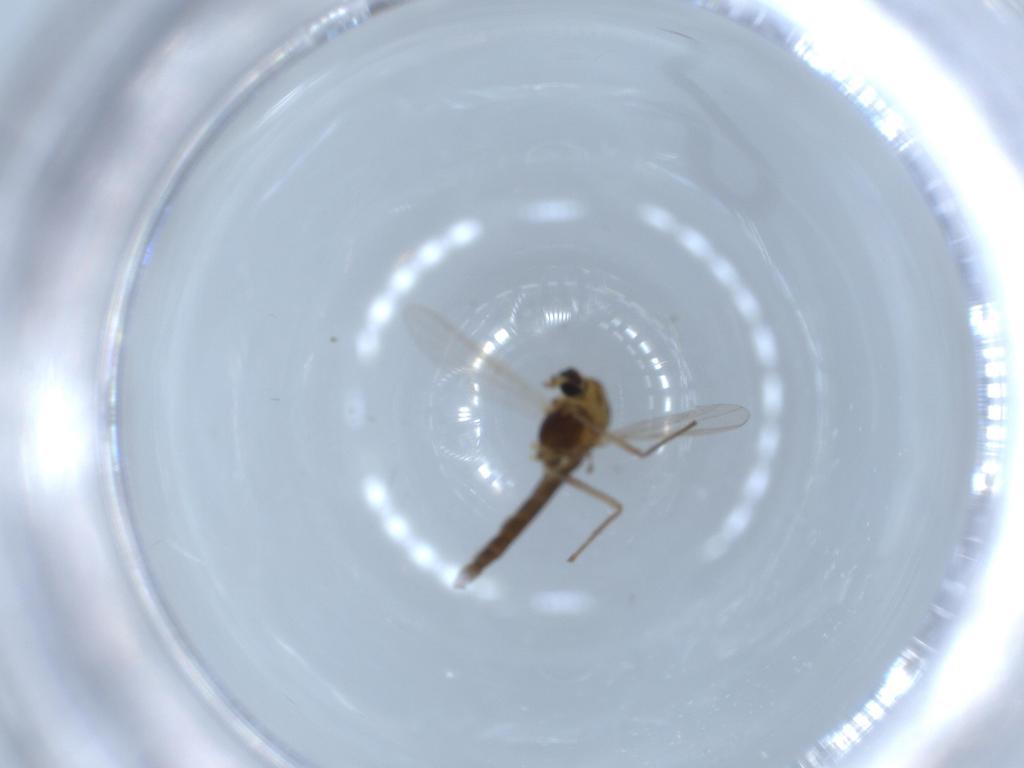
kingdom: Animalia
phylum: Arthropoda
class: Insecta
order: Diptera
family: Chironomidae
